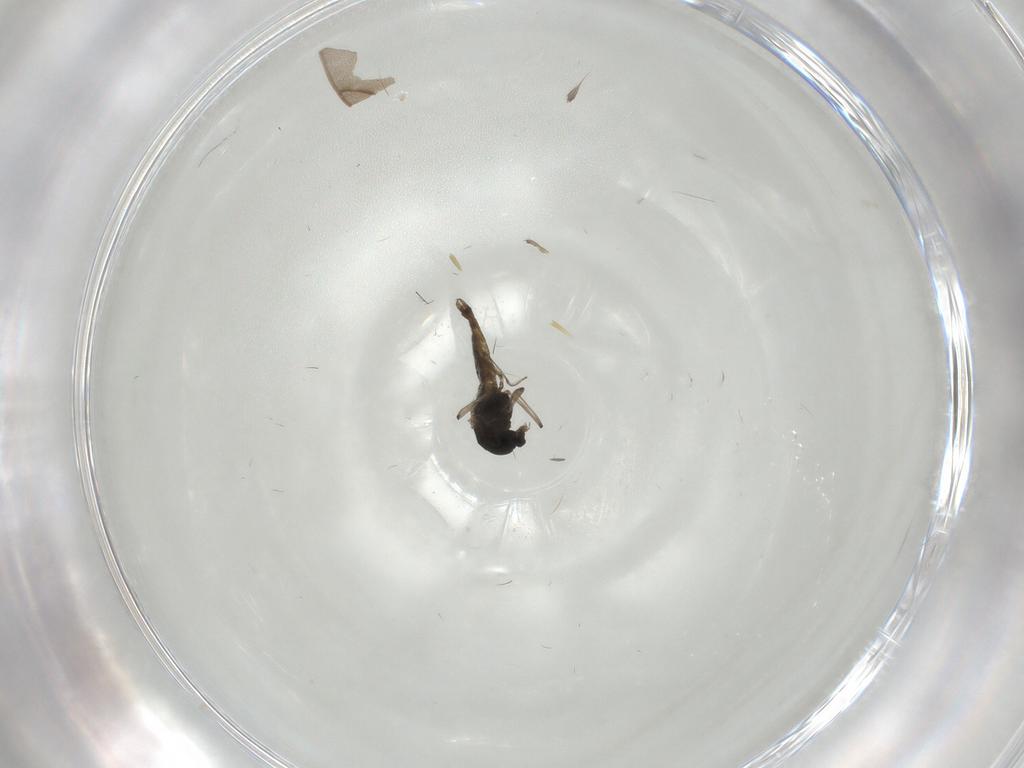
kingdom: Animalia
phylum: Arthropoda
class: Insecta
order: Diptera
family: Chironomidae
